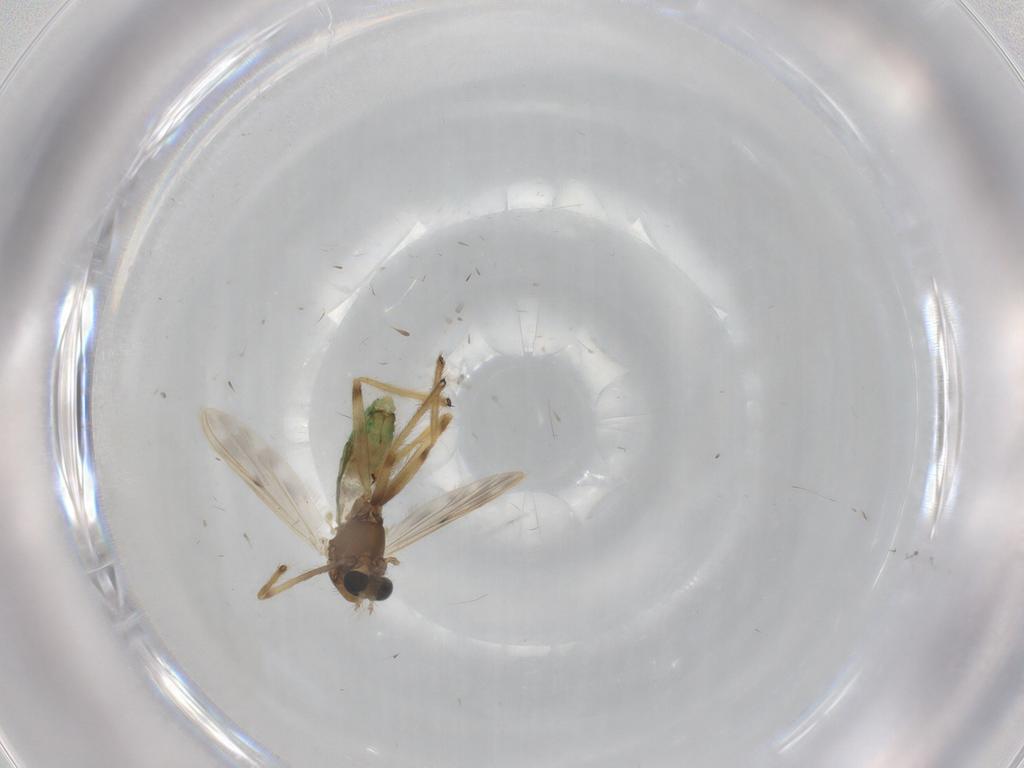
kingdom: Animalia
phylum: Arthropoda
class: Insecta
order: Diptera
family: Chironomidae
